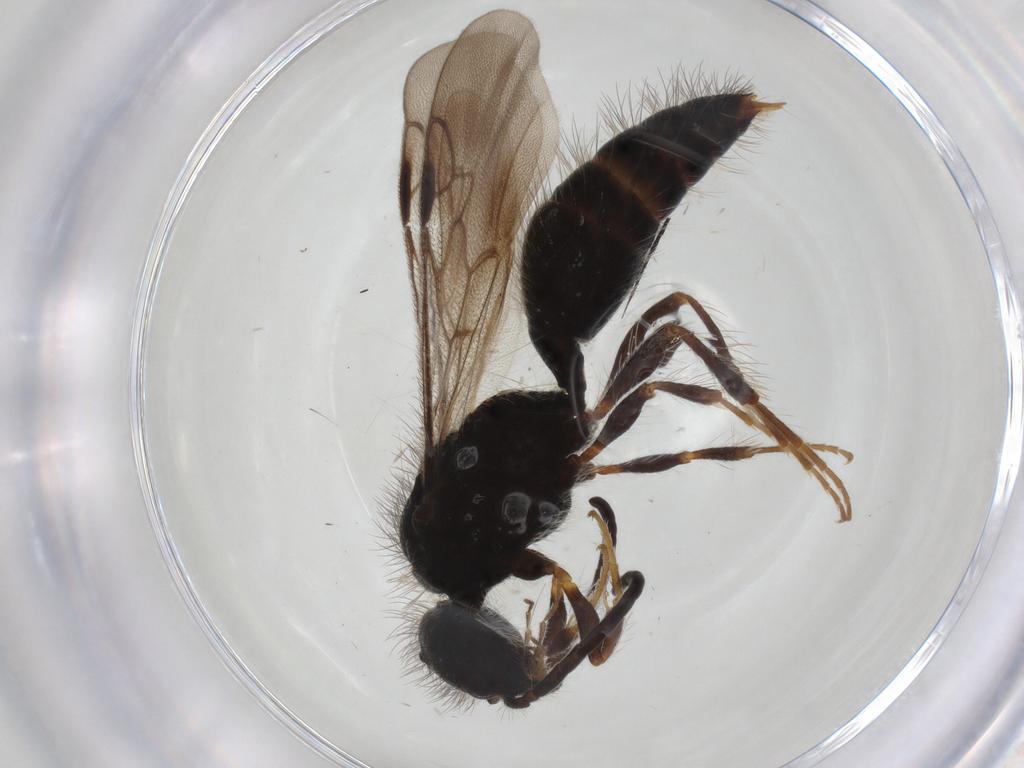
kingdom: Animalia
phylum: Arthropoda
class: Insecta
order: Hymenoptera
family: Mutillidae
